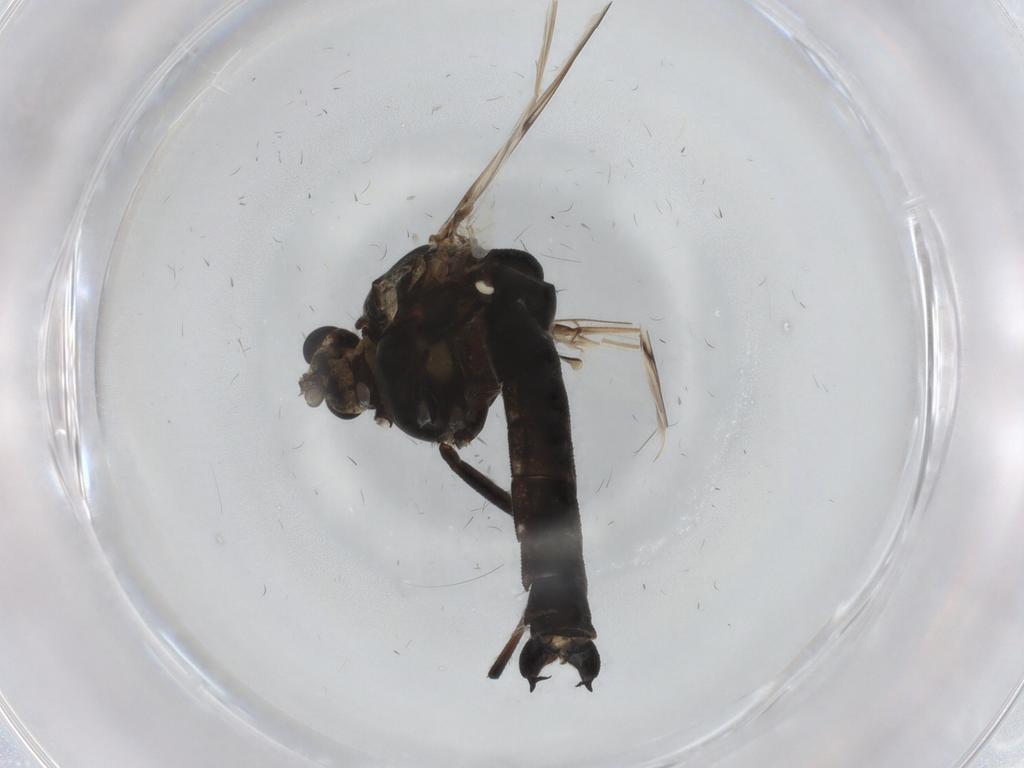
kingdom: Animalia
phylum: Arthropoda
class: Insecta
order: Diptera
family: Chironomidae
